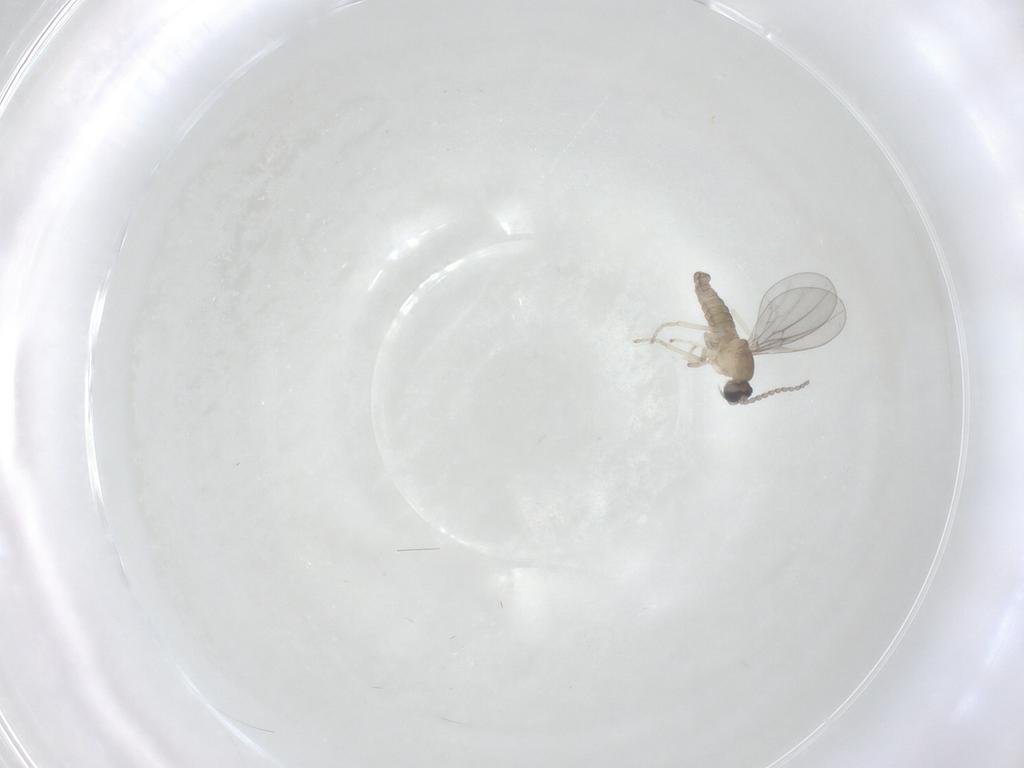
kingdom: Animalia
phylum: Arthropoda
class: Insecta
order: Diptera
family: Cecidomyiidae
